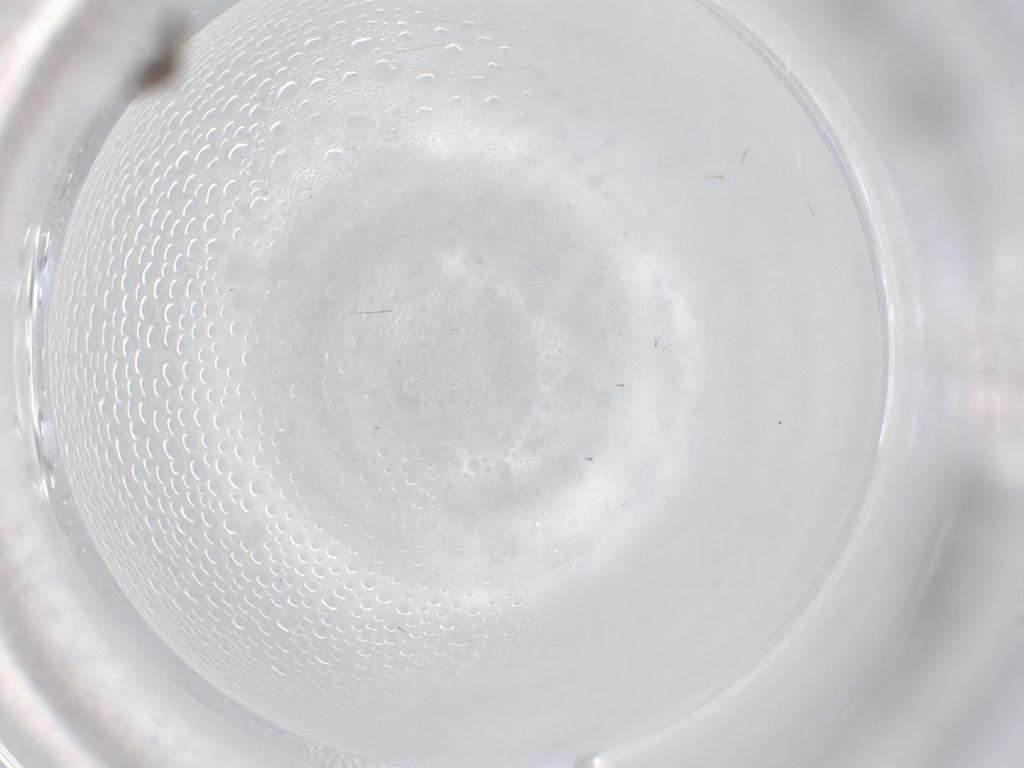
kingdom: Animalia
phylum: Arthropoda
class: Insecta
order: Diptera
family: Sciaridae
